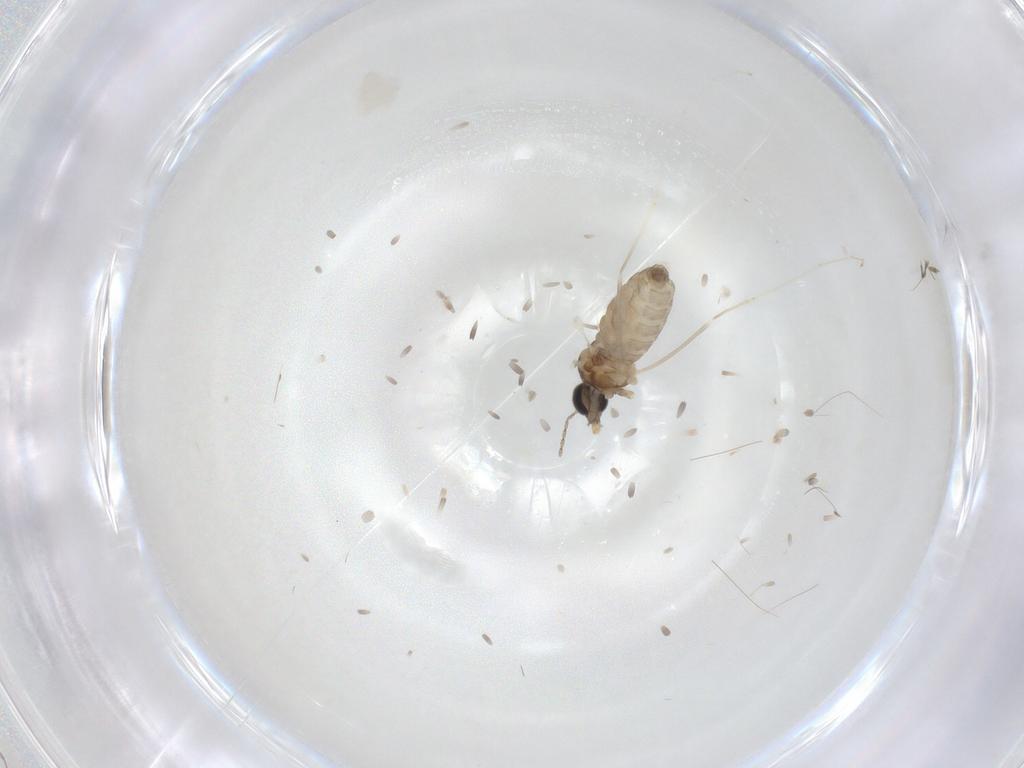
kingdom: Animalia
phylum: Arthropoda
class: Insecta
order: Diptera
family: Cecidomyiidae
